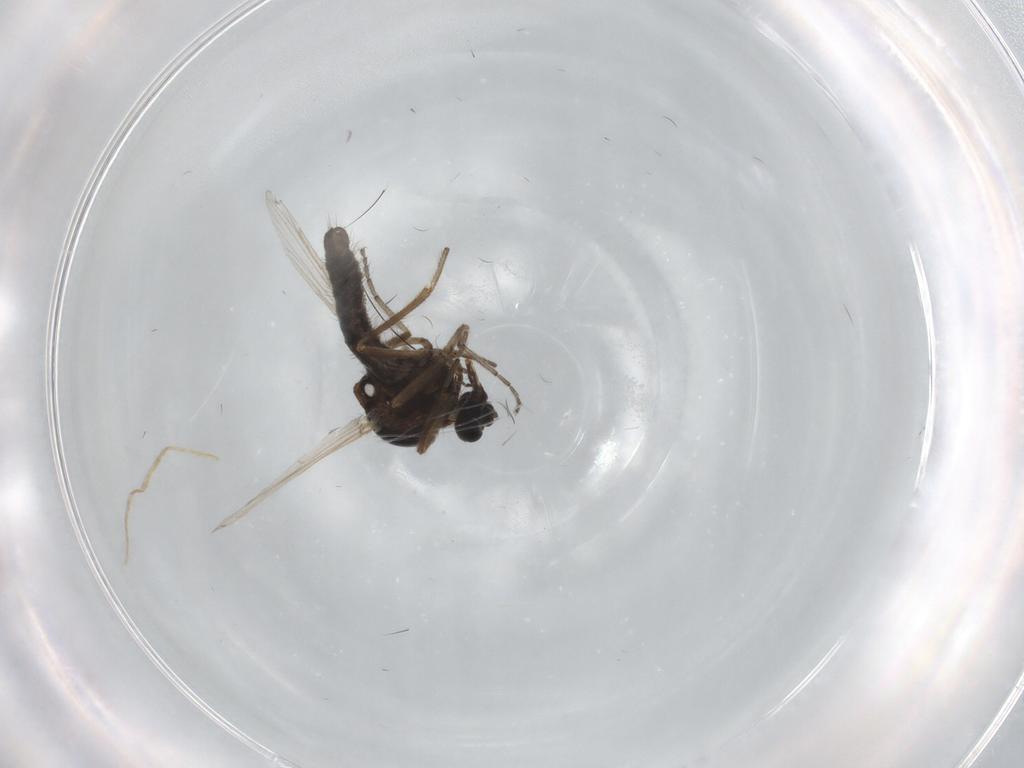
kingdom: Animalia
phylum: Arthropoda
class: Insecta
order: Diptera
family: Ceratopogonidae
